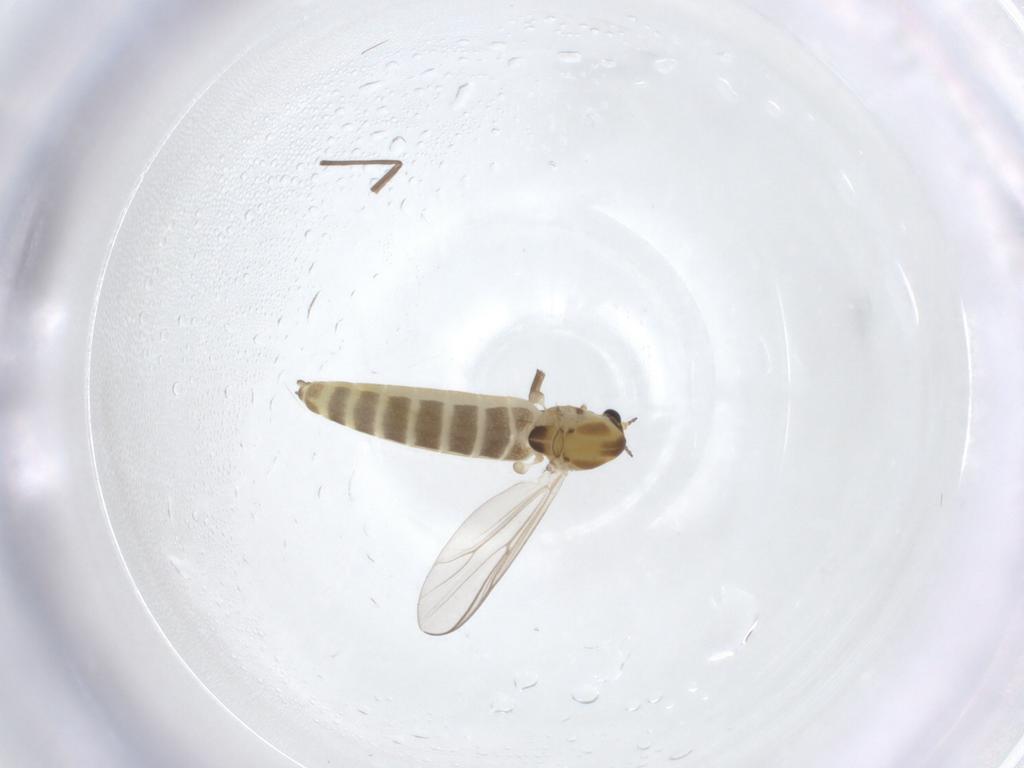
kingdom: Animalia
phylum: Arthropoda
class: Insecta
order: Diptera
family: Chironomidae
